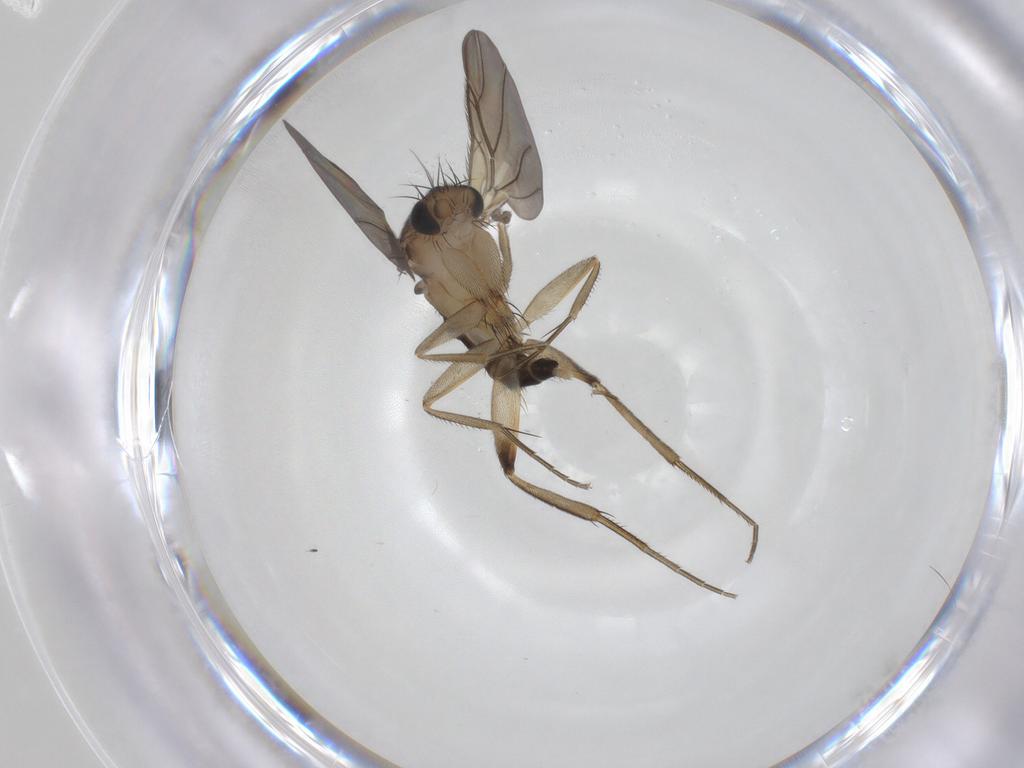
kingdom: Animalia
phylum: Arthropoda
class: Insecta
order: Diptera
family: Phoridae
